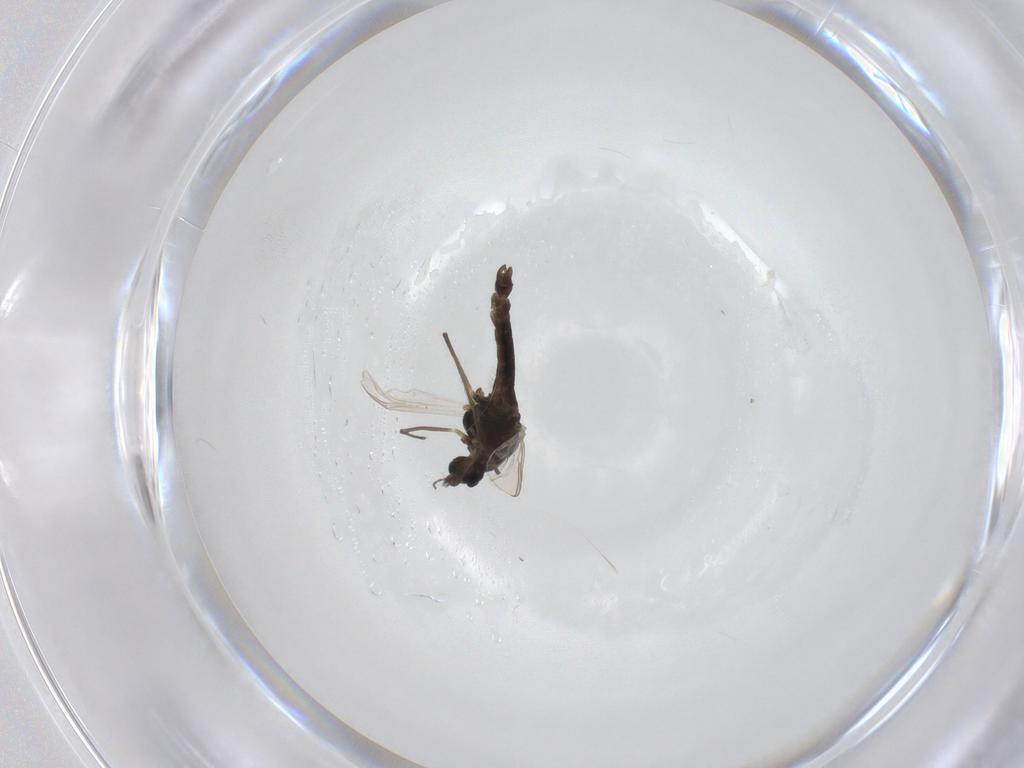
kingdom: Animalia
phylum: Arthropoda
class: Insecta
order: Diptera
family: Chironomidae
